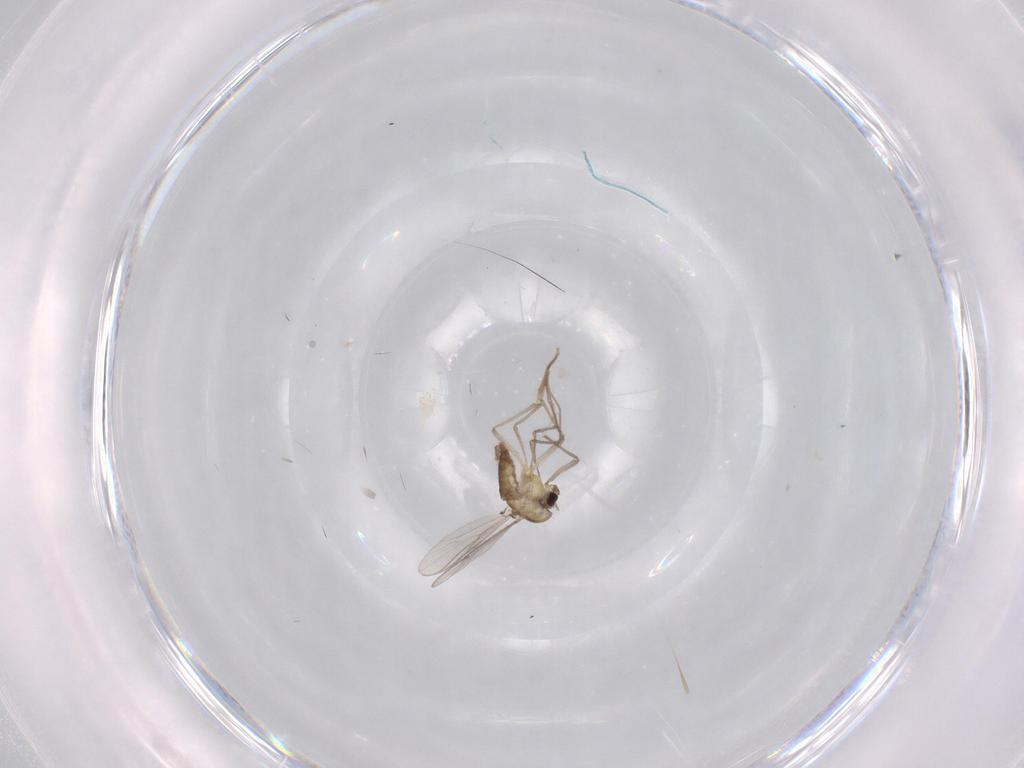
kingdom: Animalia
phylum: Arthropoda
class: Insecta
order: Diptera
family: Chironomidae
